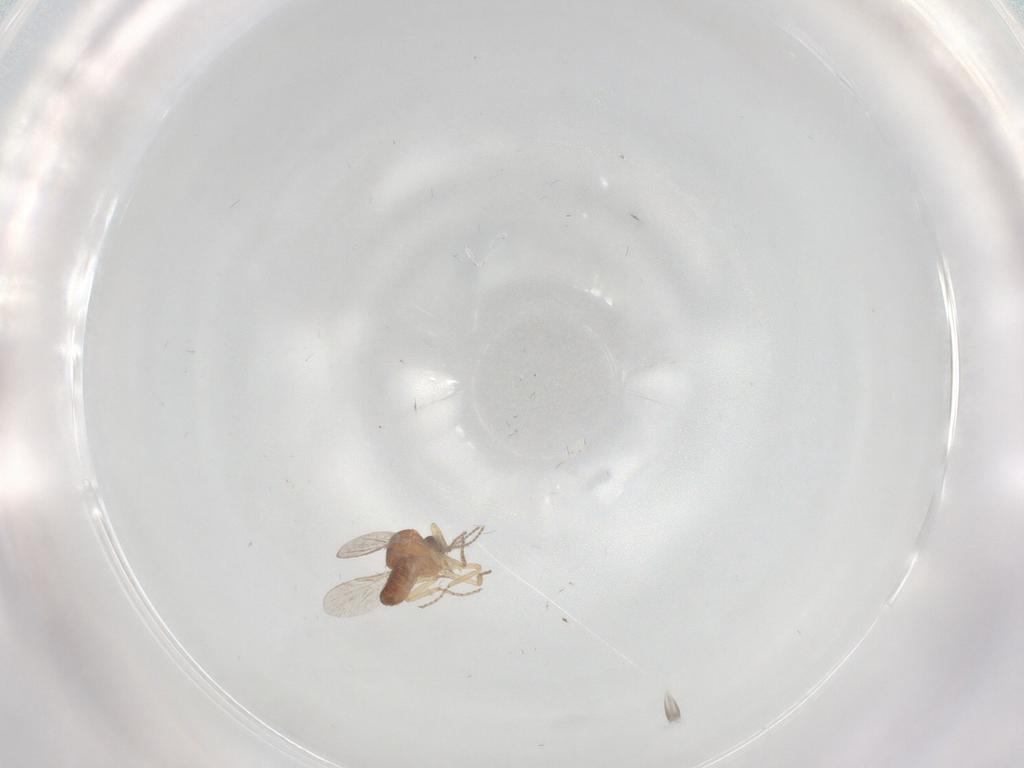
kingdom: Animalia
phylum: Arthropoda
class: Insecta
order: Diptera
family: Ceratopogonidae
